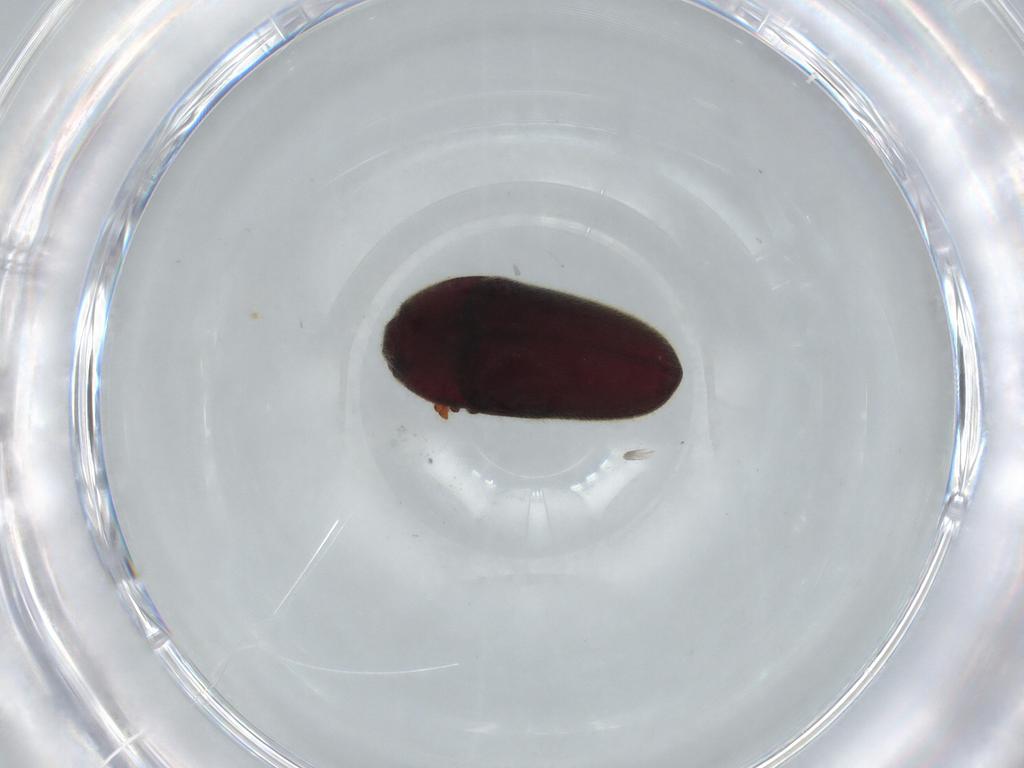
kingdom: Animalia
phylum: Arthropoda
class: Insecta
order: Coleoptera
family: Throscidae
